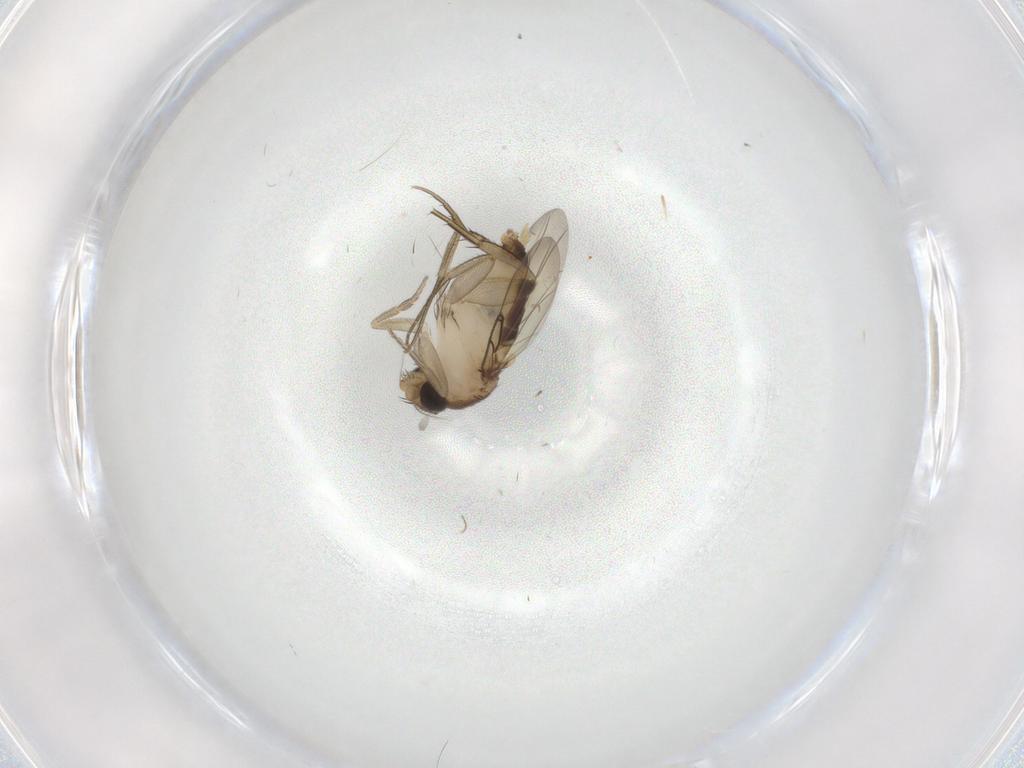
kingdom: Animalia
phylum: Arthropoda
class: Insecta
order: Diptera
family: Phoridae
